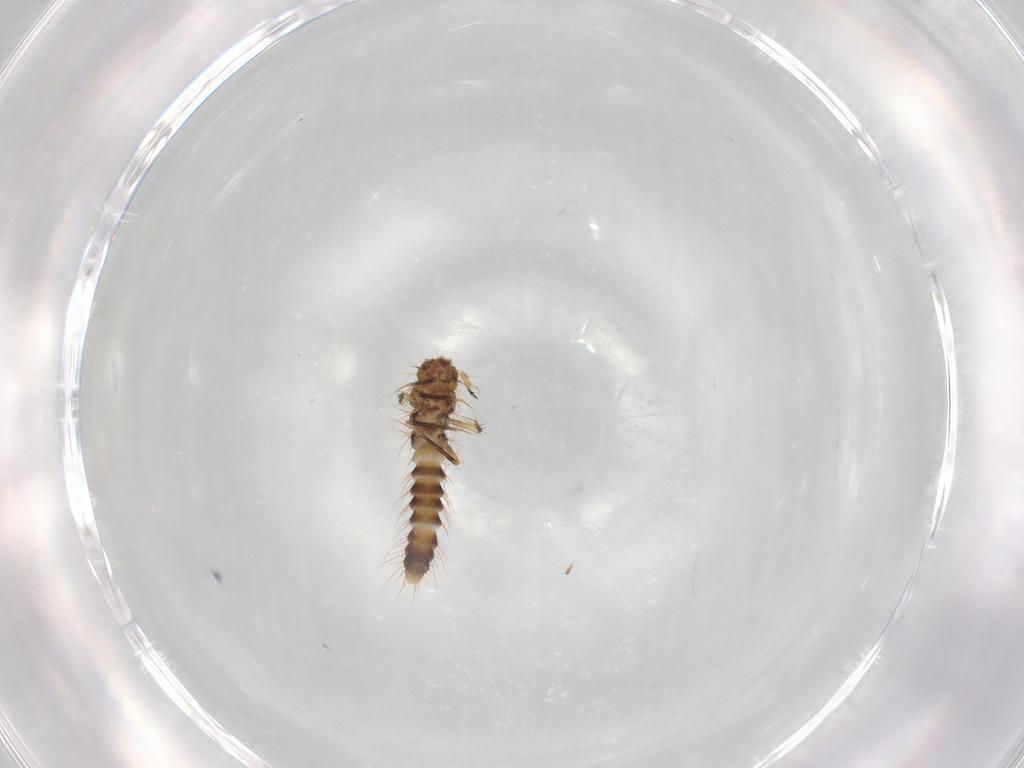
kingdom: Animalia
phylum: Arthropoda
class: Insecta
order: Coleoptera
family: Staphylinidae
